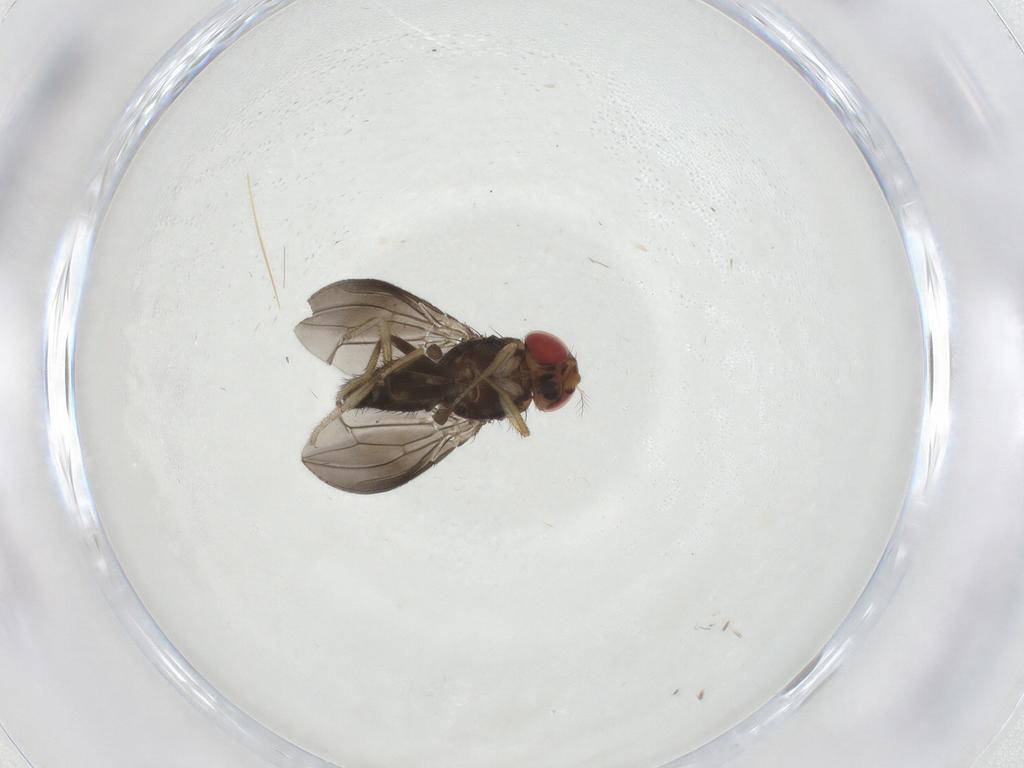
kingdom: Animalia
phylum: Arthropoda
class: Insecta
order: Diptera
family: Drosophilidae
